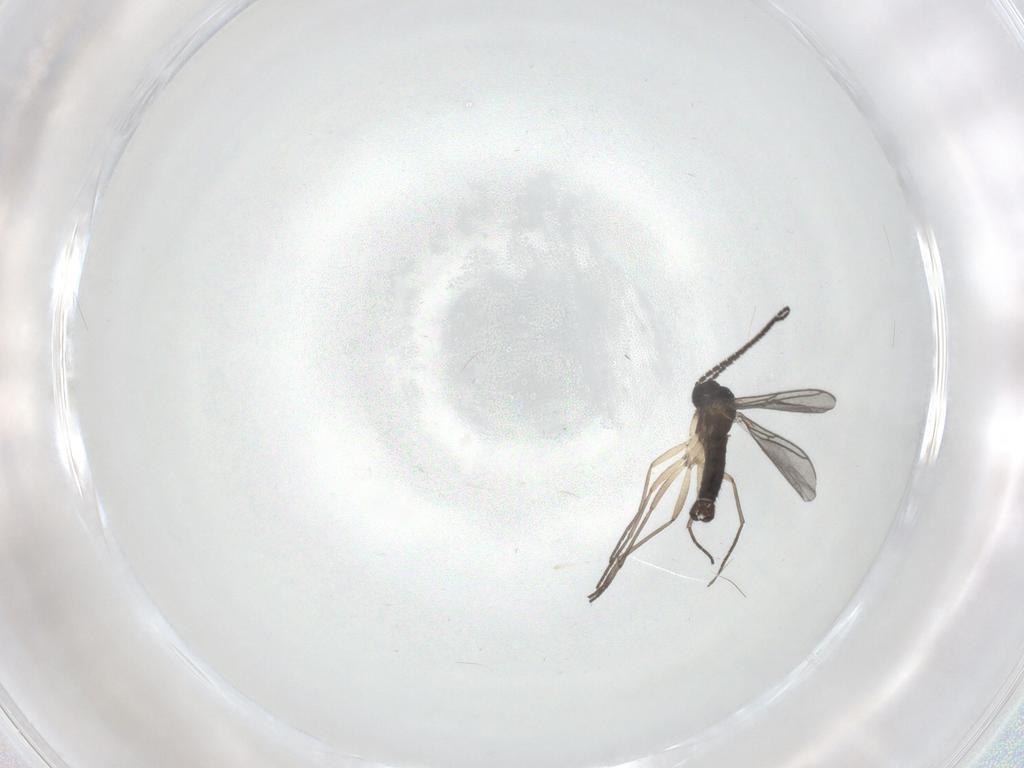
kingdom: Animalia
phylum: Arthropoda
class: Insecta
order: Diptera
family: Sciaridae
